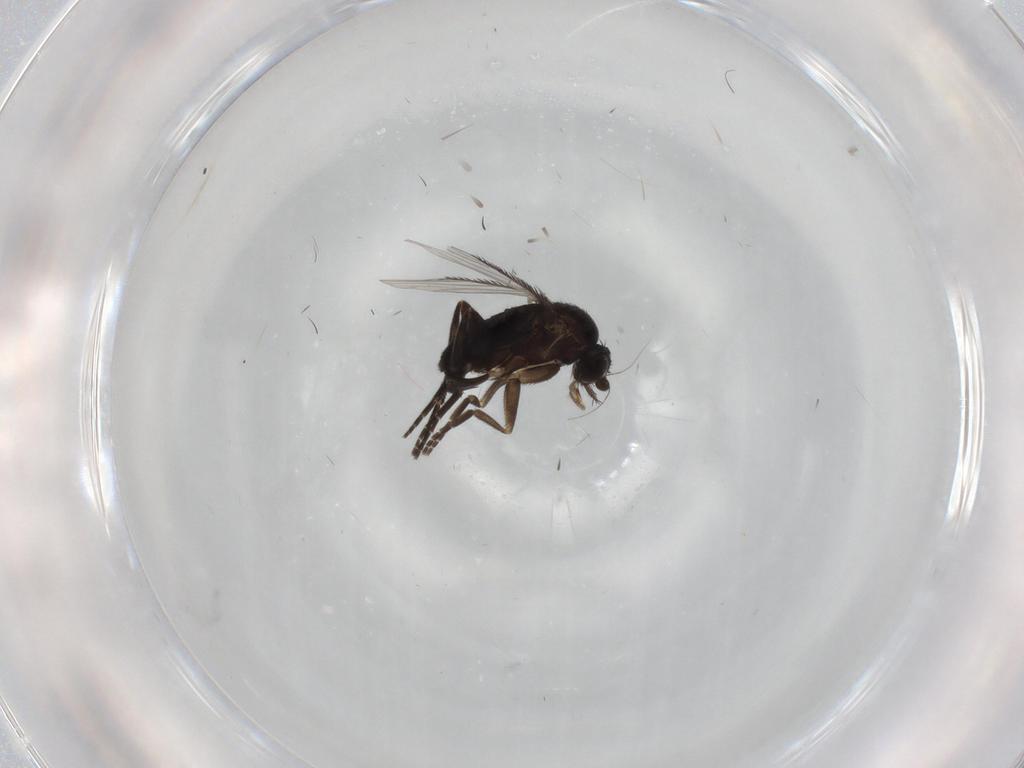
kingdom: Animalia
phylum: Arthropoda
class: Insecta
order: Diptera
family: Phoridae
